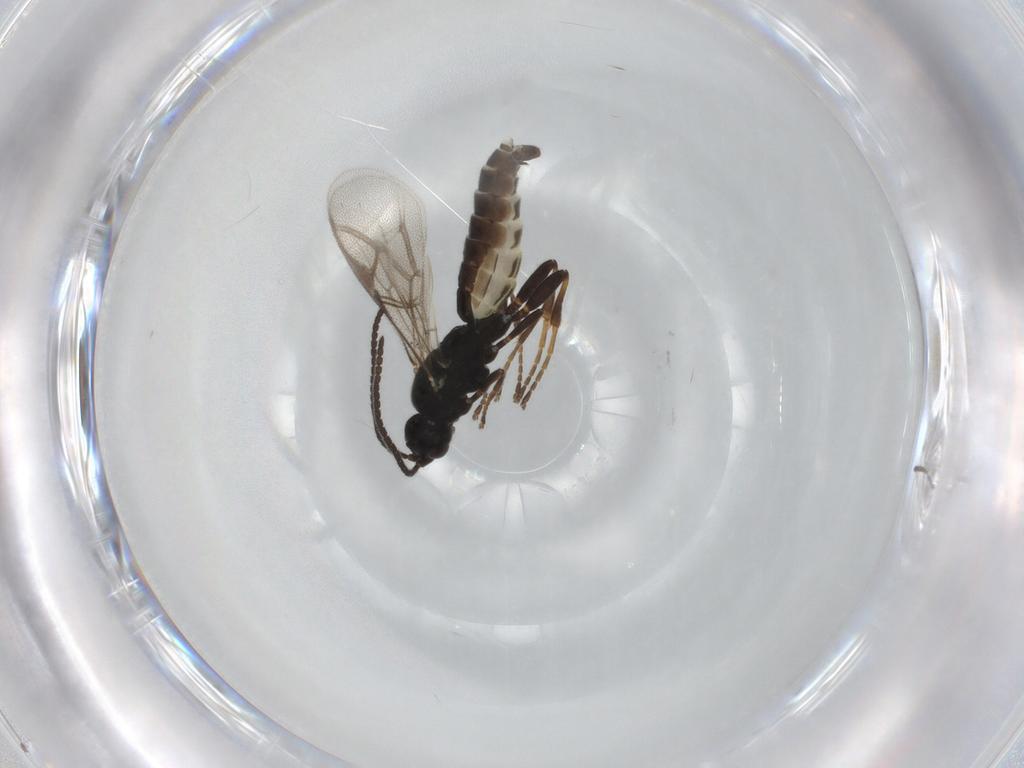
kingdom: Animalia
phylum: Arthropoda
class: Insecta
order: Hymenoptera
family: Ichneumonidae
